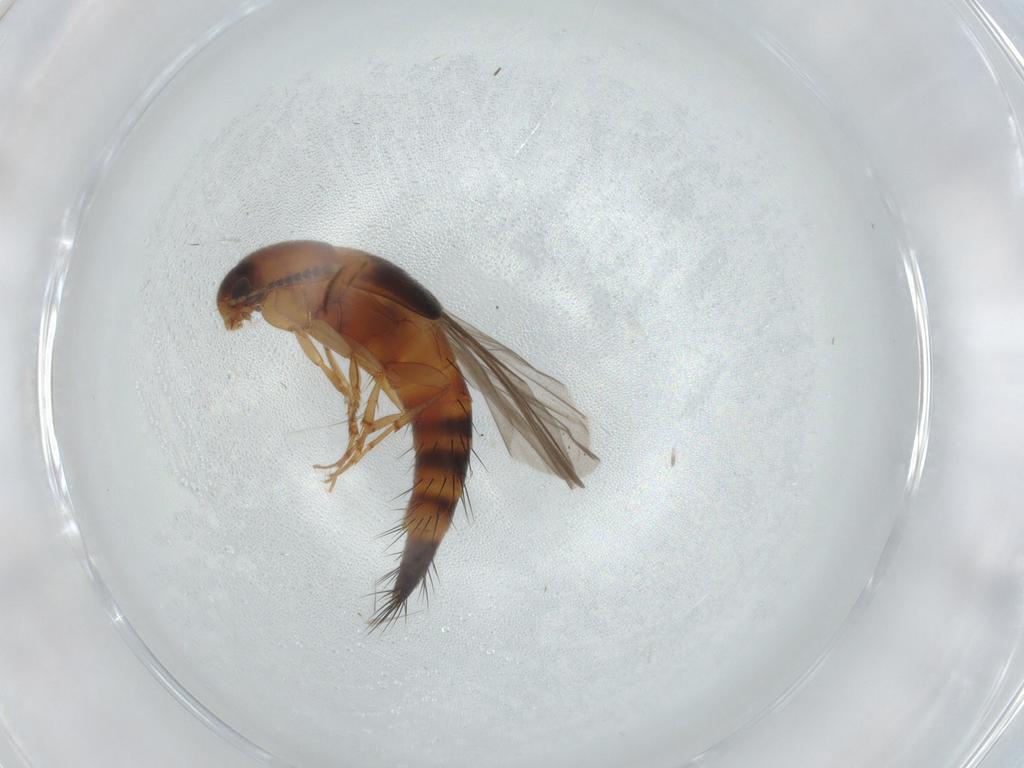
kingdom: Animalia
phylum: Arthropoda
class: Insecta
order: Coleoptera
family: Staphylinidae
